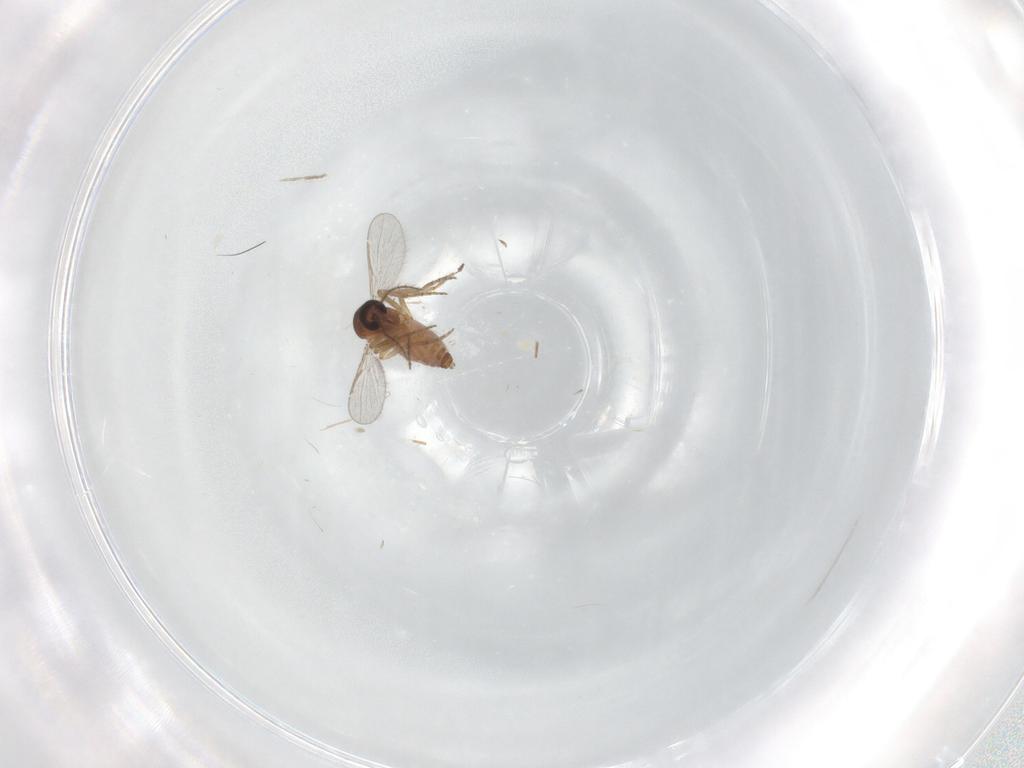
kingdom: Animalia
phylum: Arthropoda
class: Insecta
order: Diptera
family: Sciaridae
